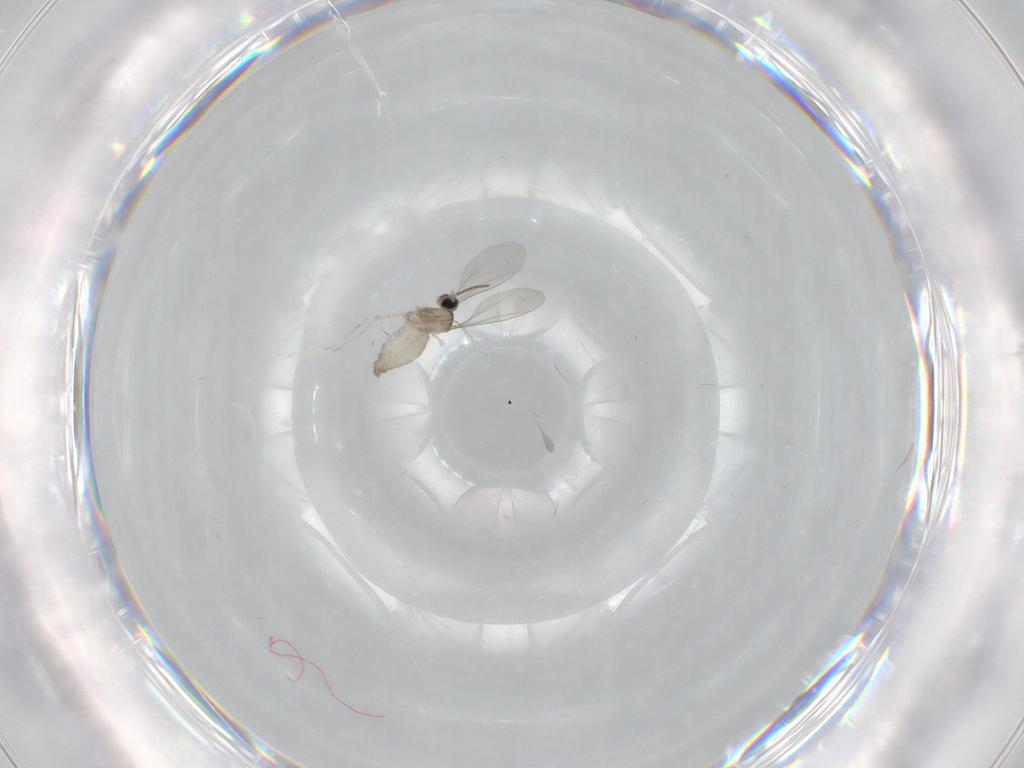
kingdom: Animalia
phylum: Arthropoda
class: Insecta
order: Diptera
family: Sciaridae
